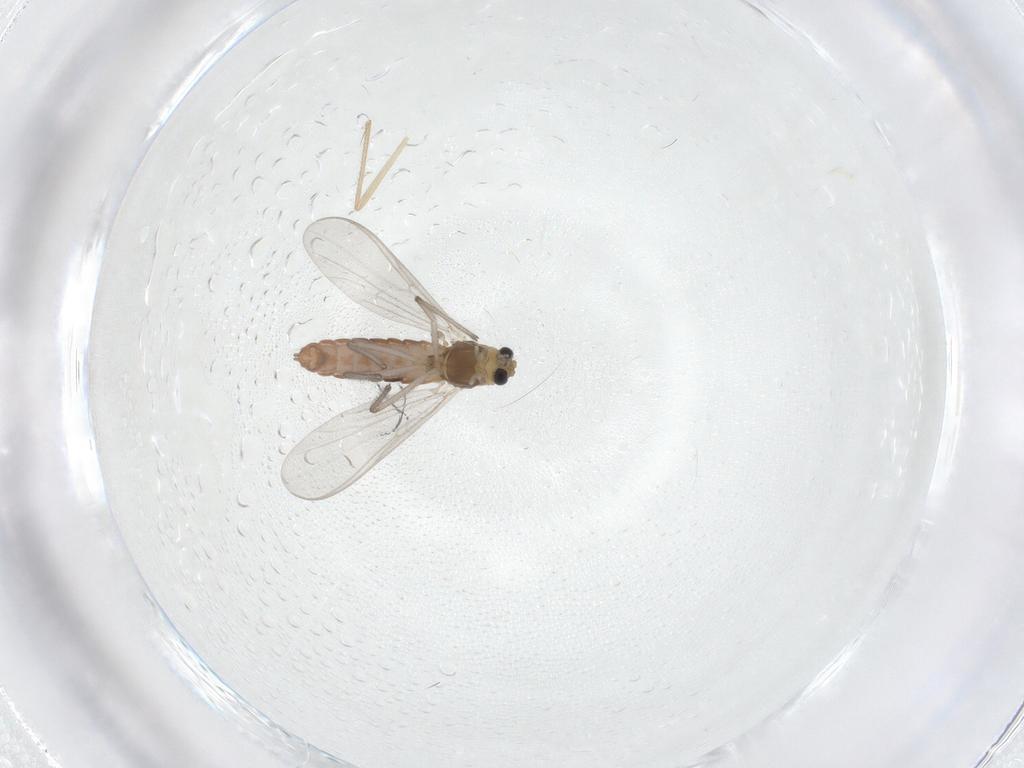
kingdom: Animalia
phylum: Arthropoda
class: Insecta
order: Diptera
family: Chironomidae
